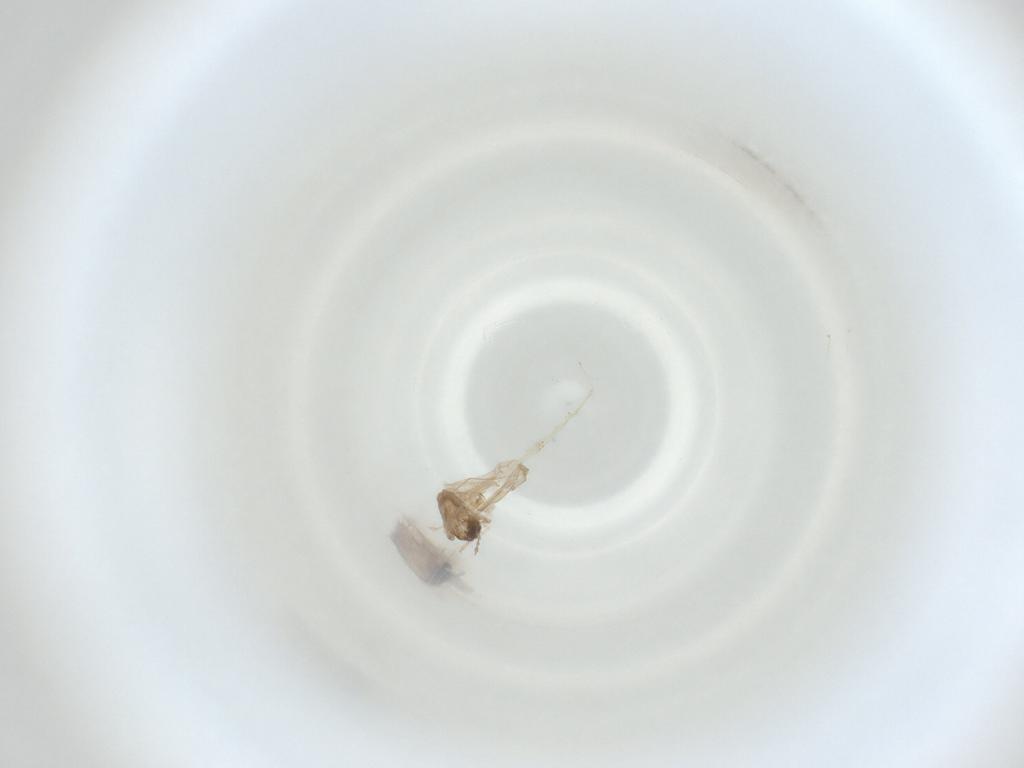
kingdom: Animalia
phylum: Arthropoda
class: Insecta
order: Diptera
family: Cecidomyiidae
